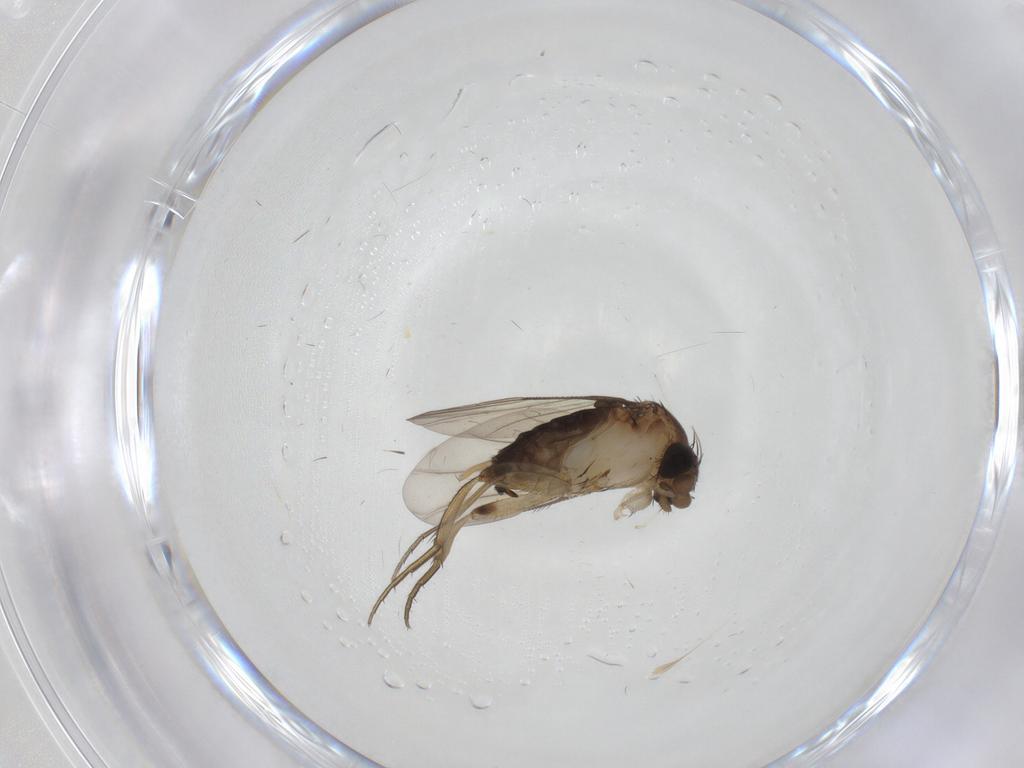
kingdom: Animalia
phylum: Arthropoda
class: Insecta
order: Diptera
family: Phoridae
